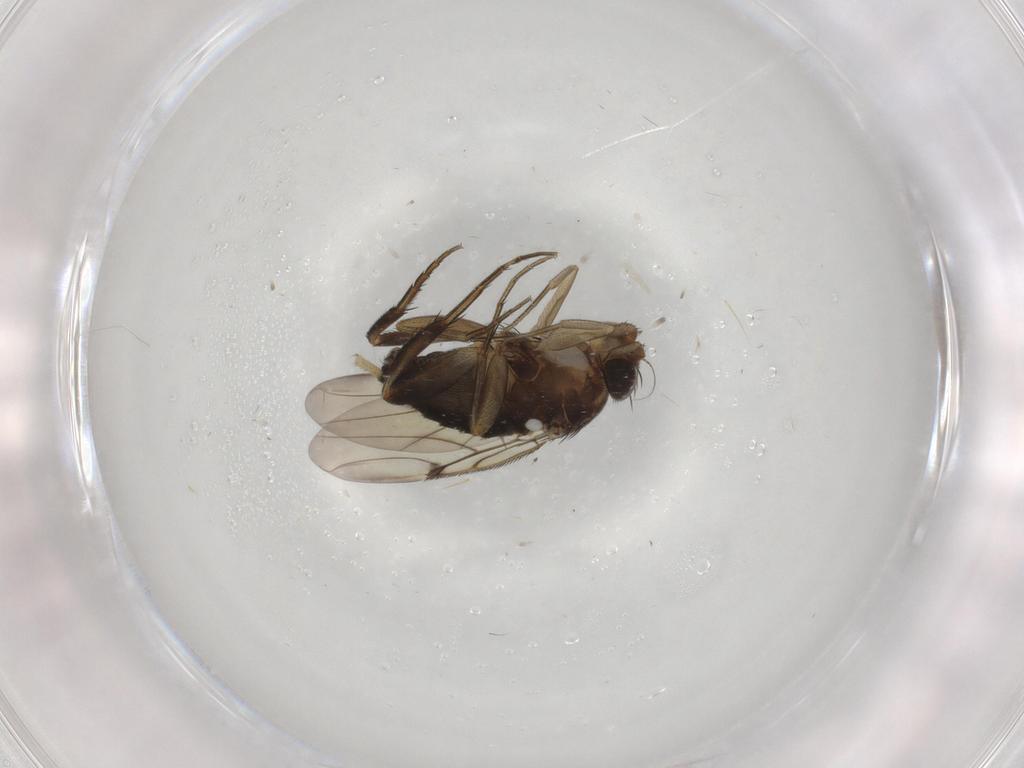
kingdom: Animalia
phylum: Arthropoda
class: Insecta
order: Diptera
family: Phoridae
